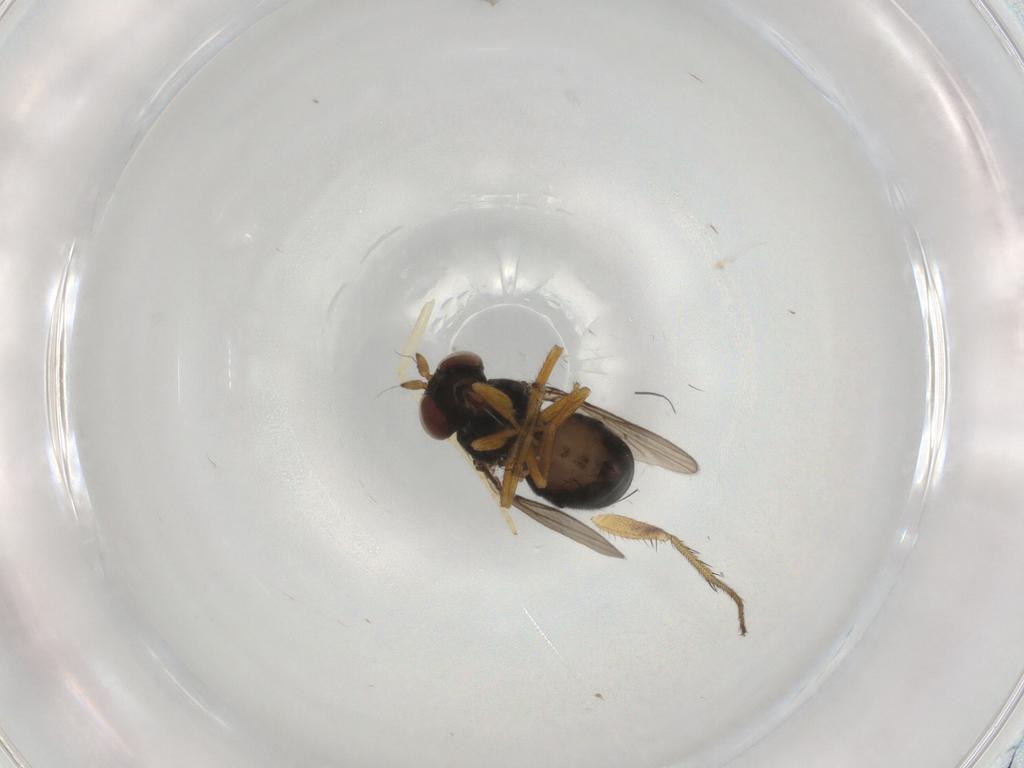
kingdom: Animalia
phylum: Arthropoda
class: Insecta
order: Diptera
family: Ephydridae
